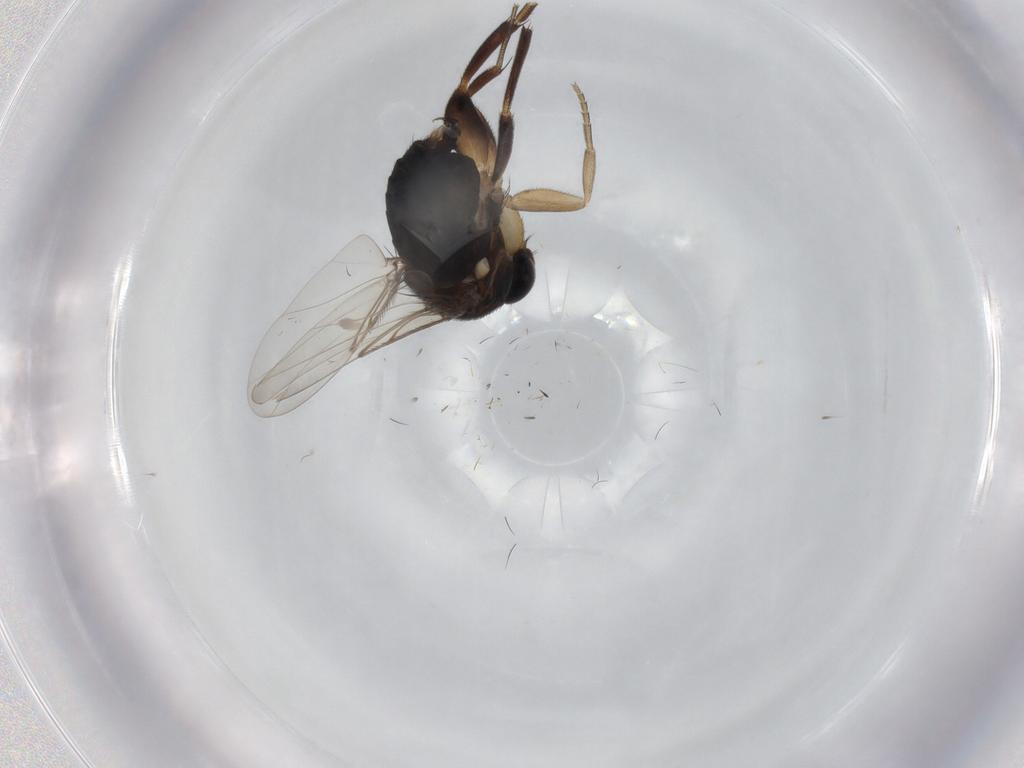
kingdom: Animalia
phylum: Arthropoda
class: Insecta
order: Diptera
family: Phoridae
